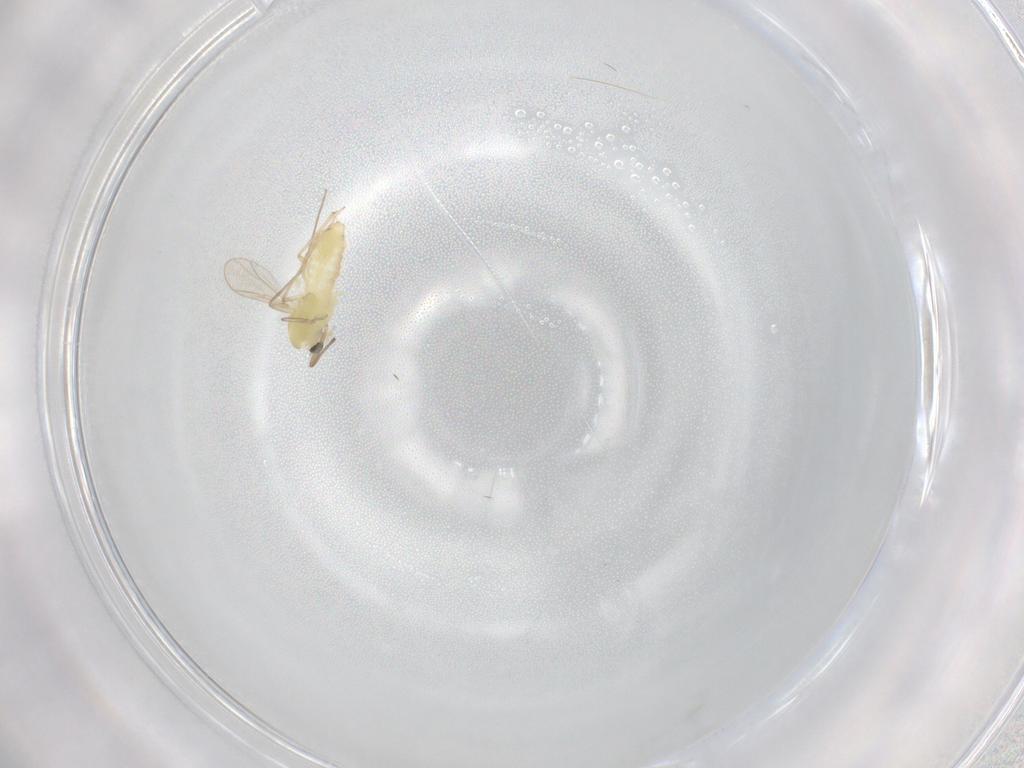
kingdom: Animalia
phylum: Arthropoda
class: Insecta
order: Diptera
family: Chironomidae
